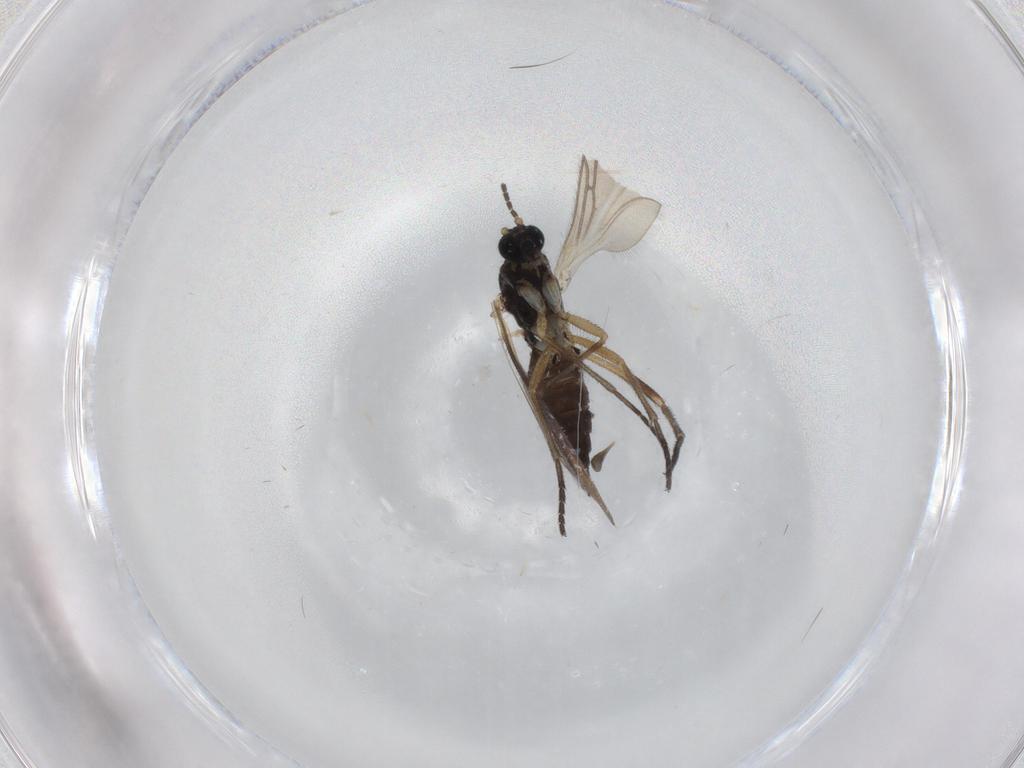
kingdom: Animalia
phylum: Arthropoda
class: Insecta
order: Diptera
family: Sciaridae
